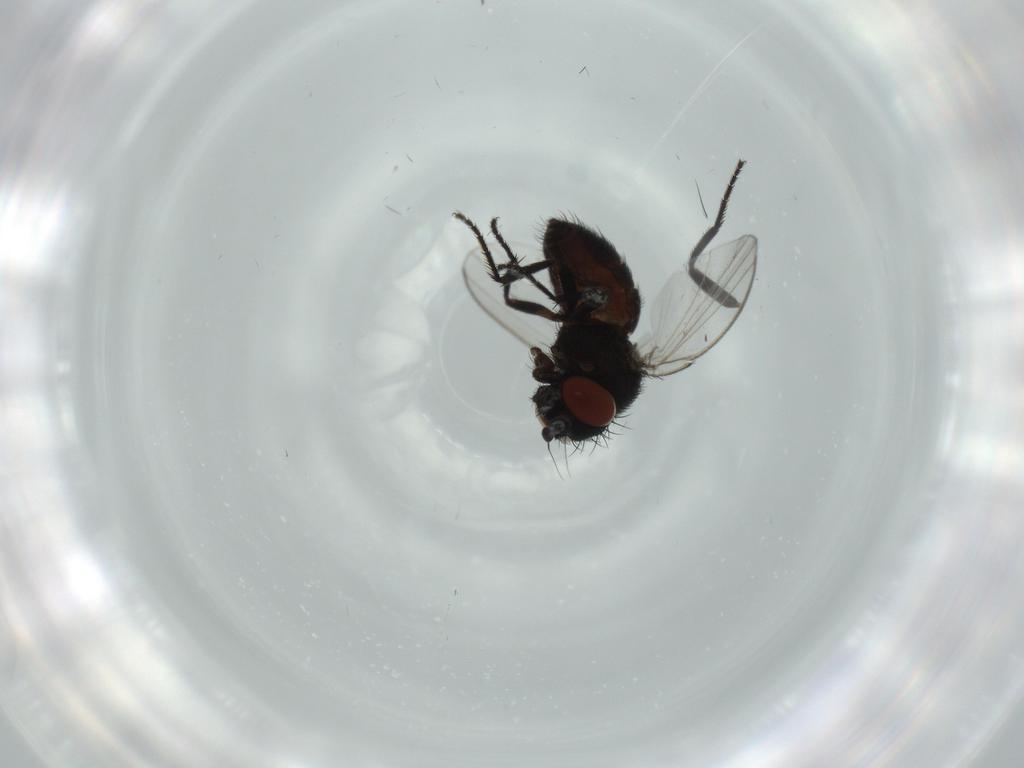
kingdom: Animalia
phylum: Arthropoda
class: Insecta
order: Diptera
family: Milichiidae
